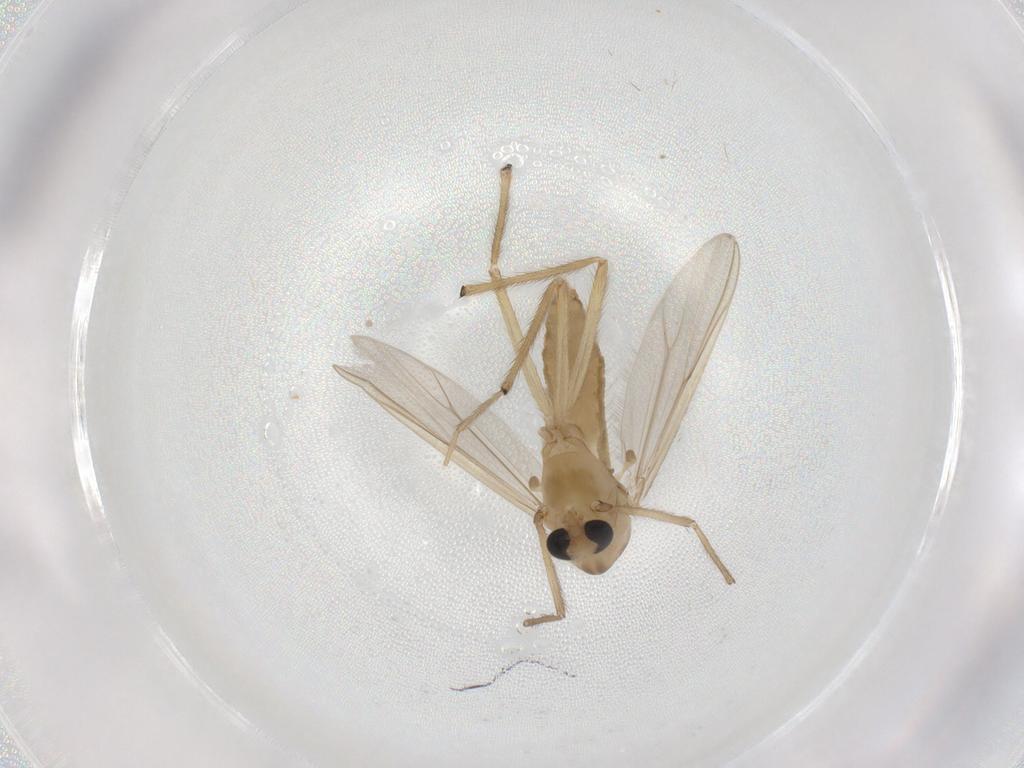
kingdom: Animalia
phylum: Arthropoda
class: Insecta
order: Diptera
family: Chironomidae
